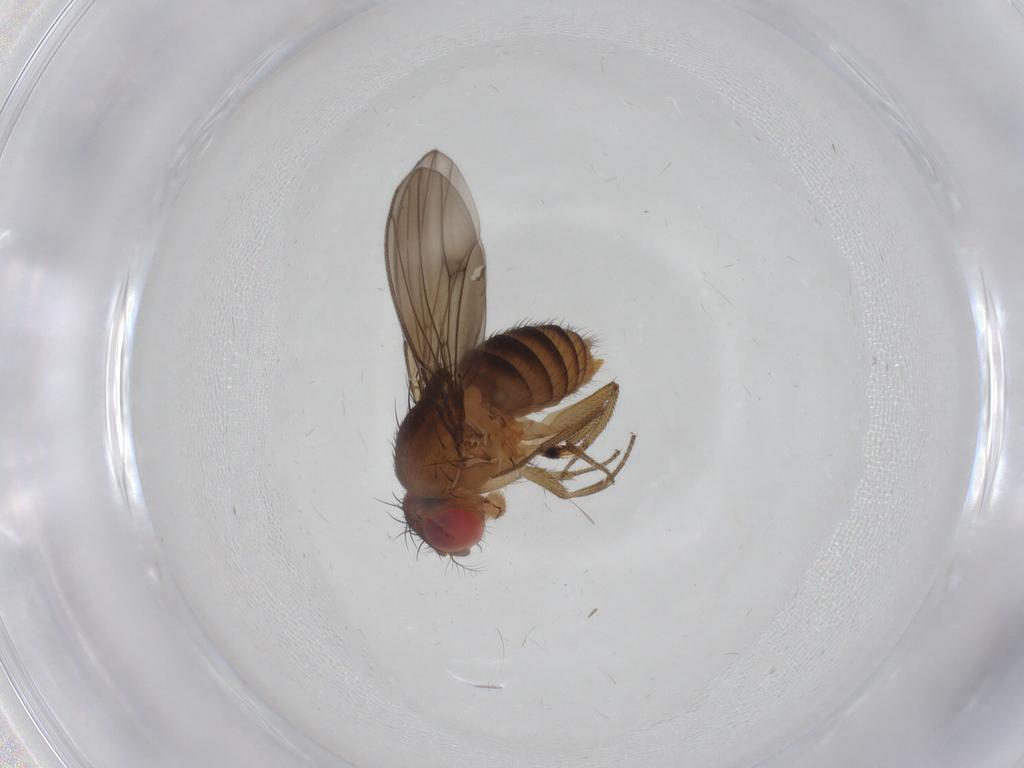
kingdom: Animalia
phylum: Arthropoda
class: Insecta
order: Diptera
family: Drosophilidae
